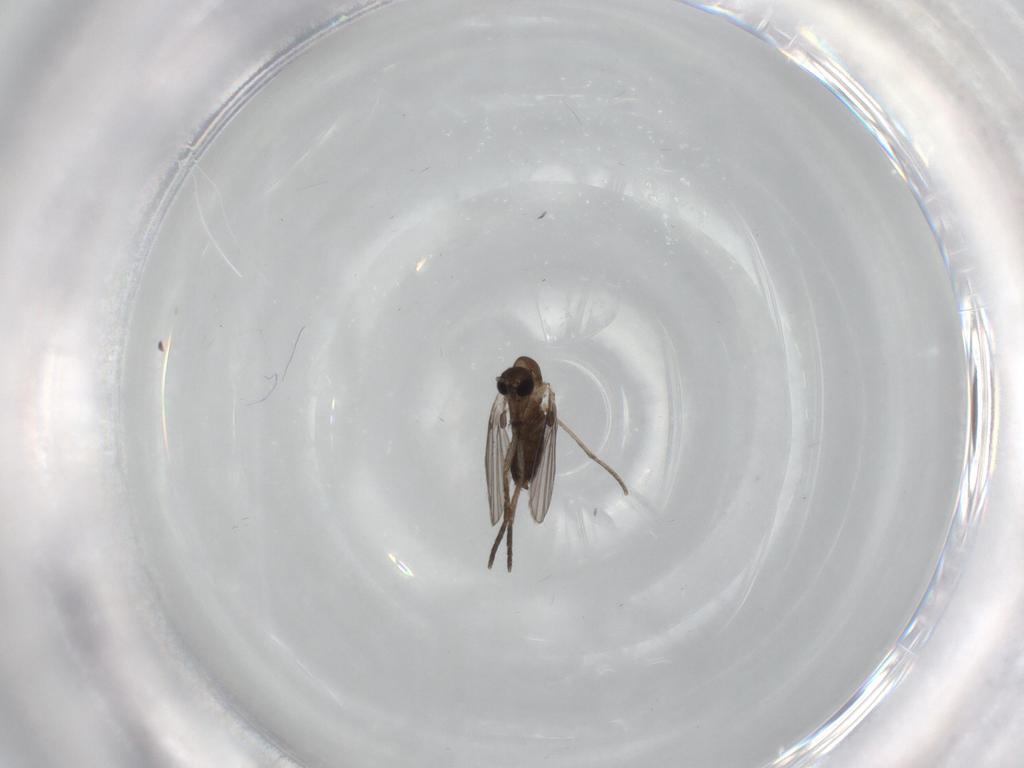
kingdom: Animalia
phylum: Arthropoda
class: Insecta
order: Diptera
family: Cecidomyiidae
